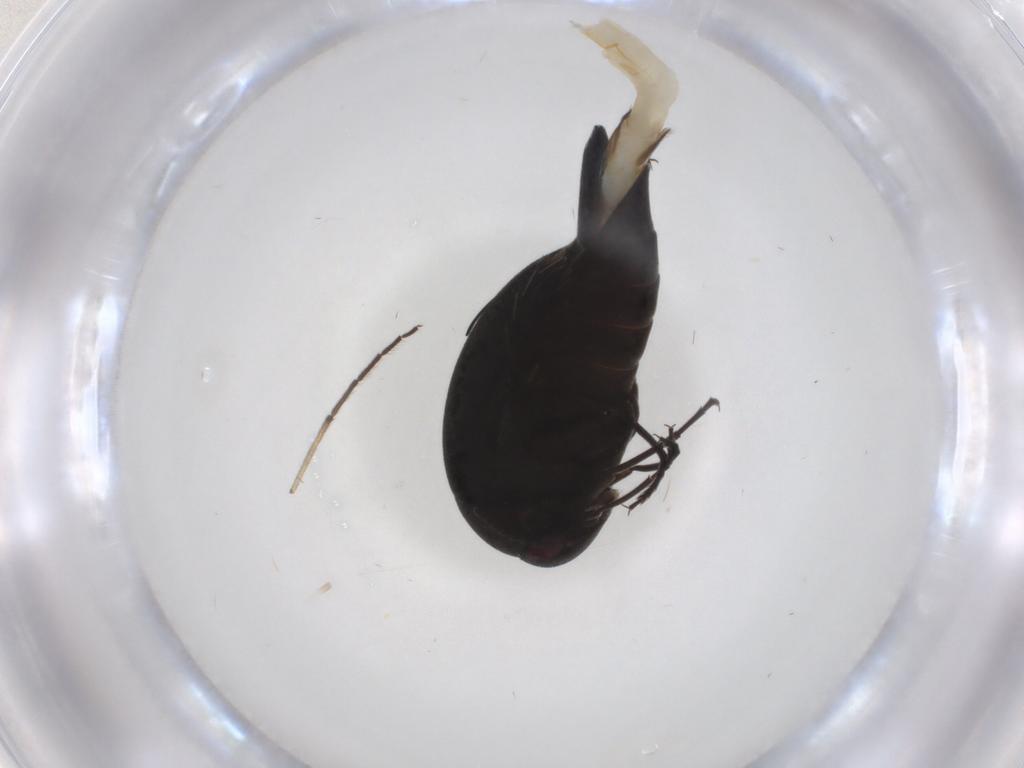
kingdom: Animalia
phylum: Arthropoda
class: Insecta
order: Coleoptera
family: Mordellidae
